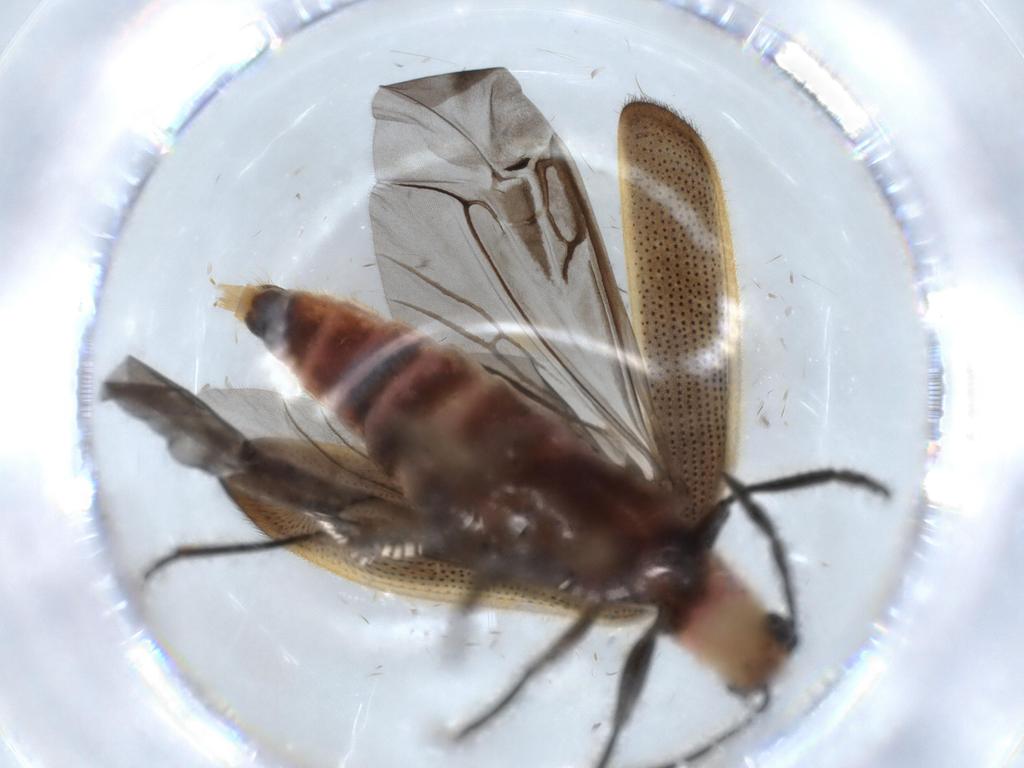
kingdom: Animalia
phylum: Arthropoda
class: Insecta
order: Coleoptera
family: Cleridae
